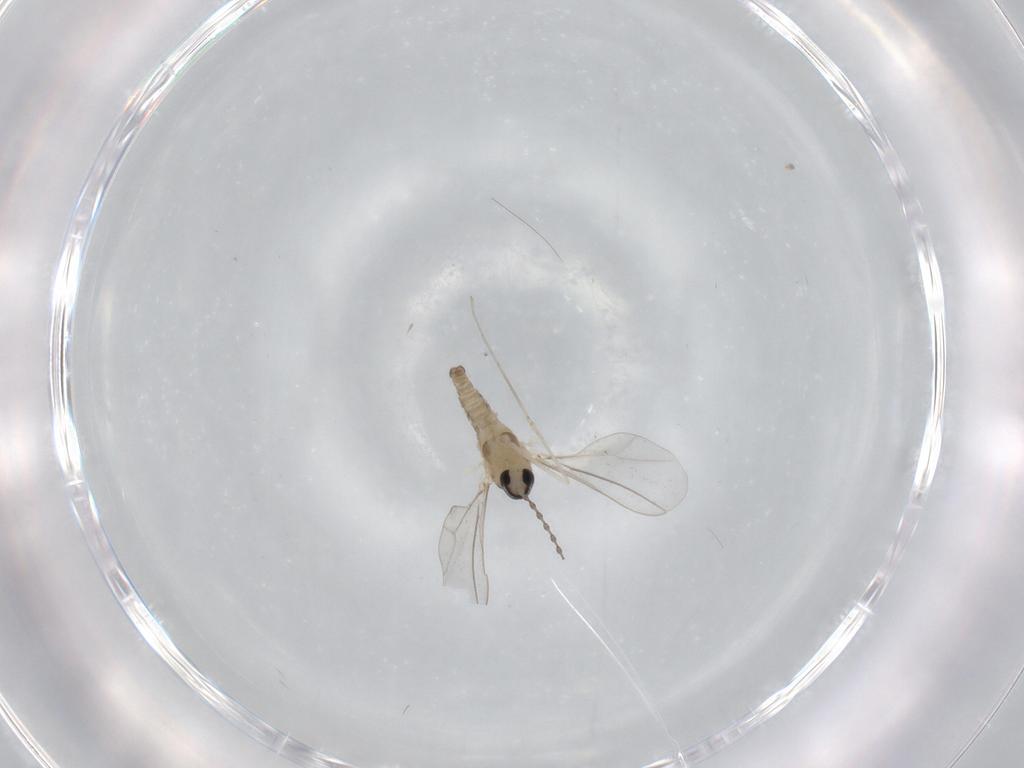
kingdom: Animalia
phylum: Arthropoda
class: Insecta
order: Diptera
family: Cecidomyiidae
